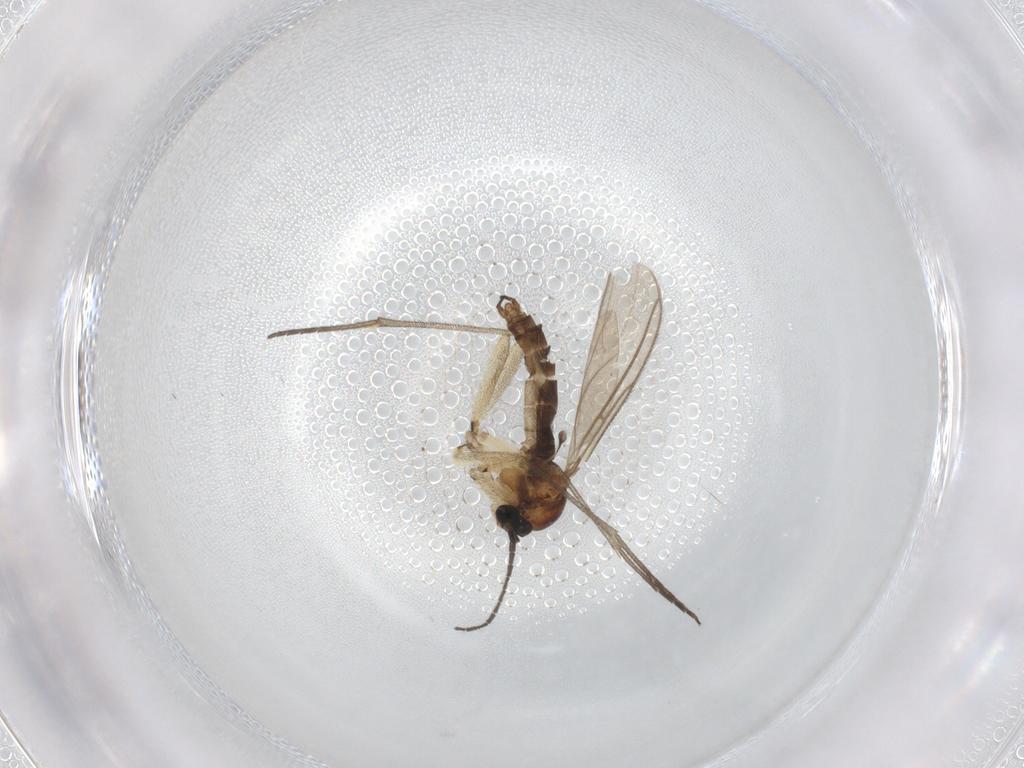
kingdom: Animalia
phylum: Arthropoda
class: Insecta
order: Diptera
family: Sciaridae
